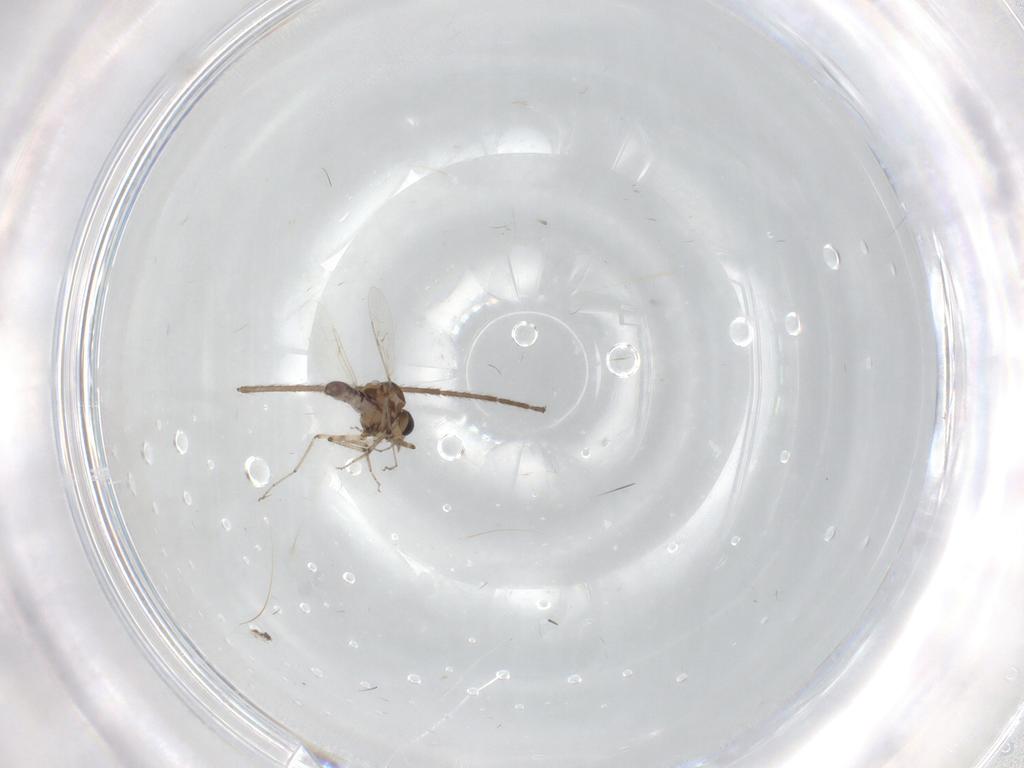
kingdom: Animalia
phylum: Arthropoda
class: Insecta
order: Diptera
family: Ceratopogonidae
